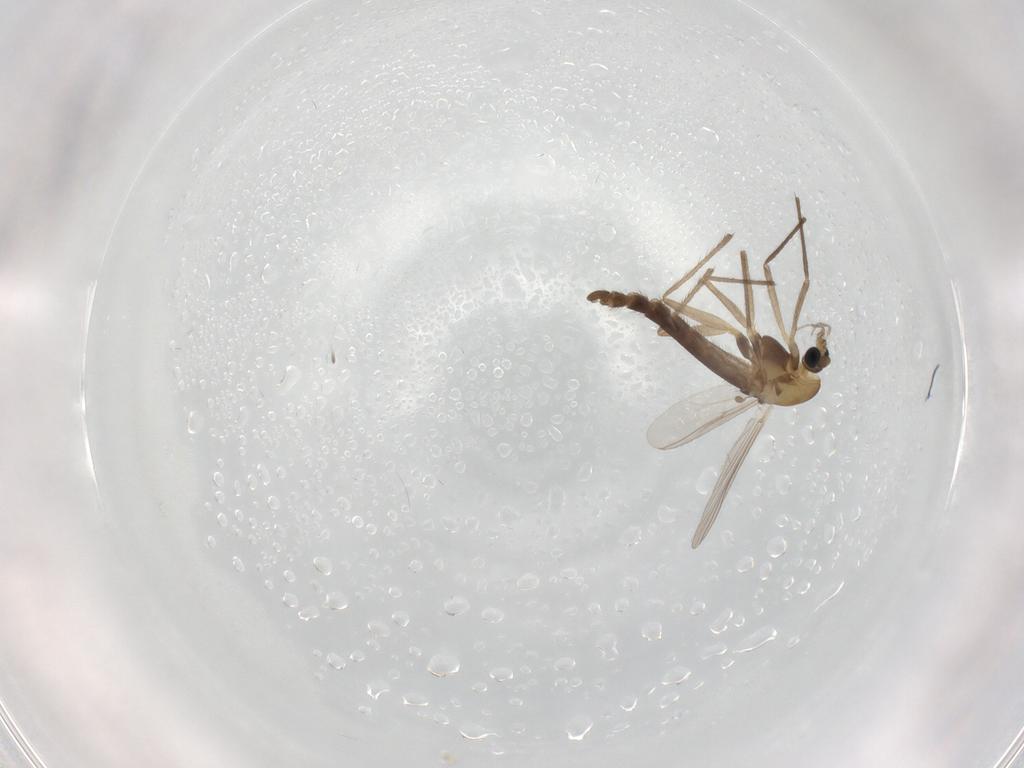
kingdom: Animalia
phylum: Arthropoda
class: Insecta
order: Diptera
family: Chironomidae
